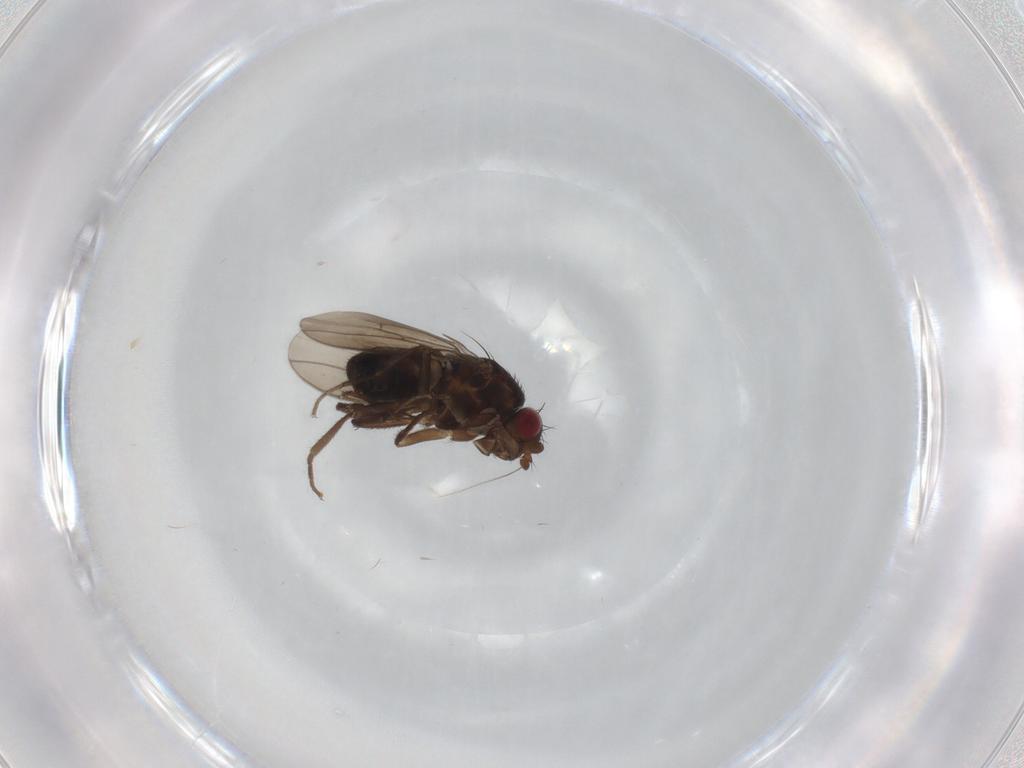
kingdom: Animalia
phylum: Arthropoda
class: Insecta
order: Diptera
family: Sphaeroceridae
